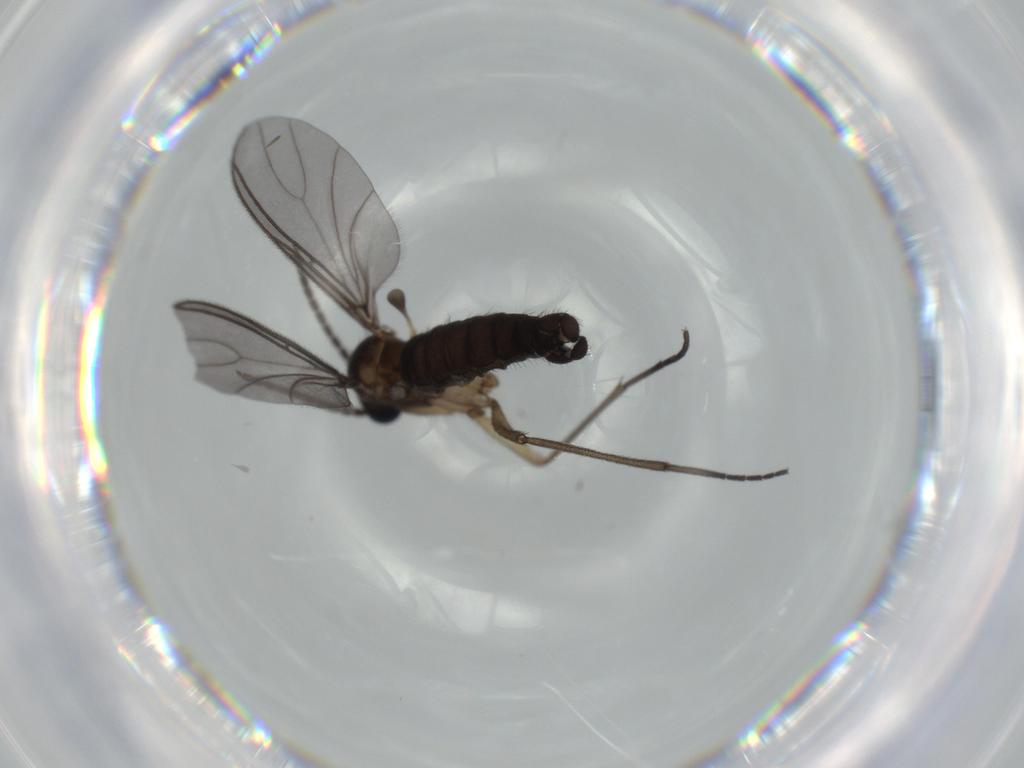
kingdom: Animalia
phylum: Arthropoda
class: Insecta
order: Diptera
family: Sciaridae
